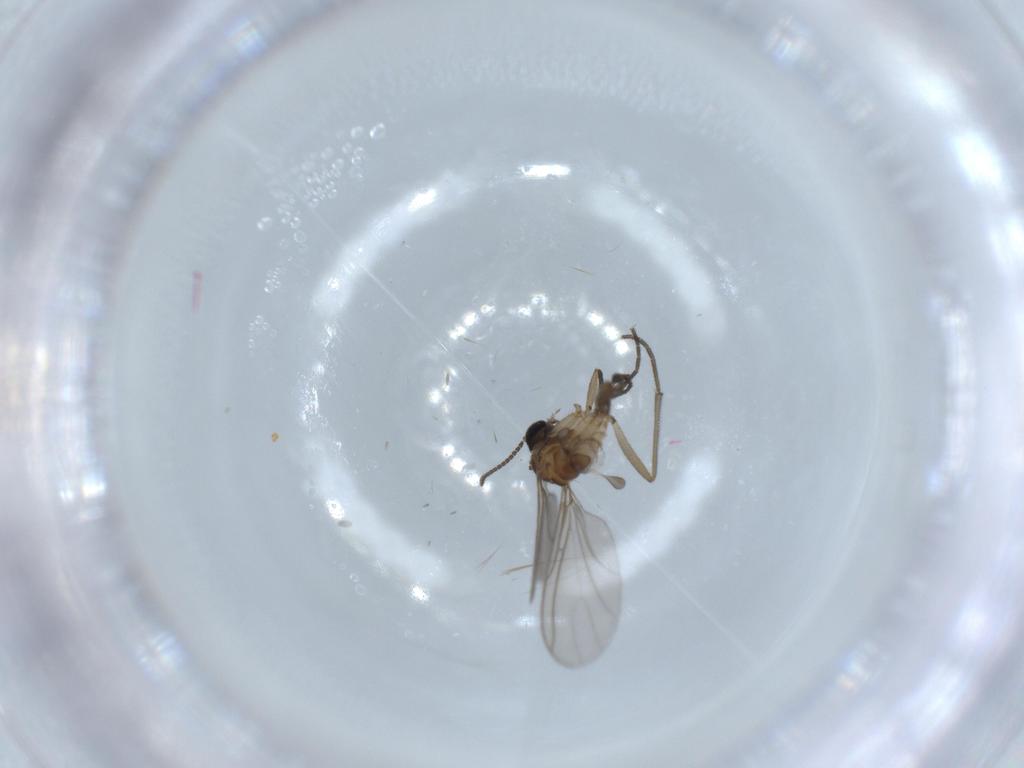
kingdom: Animalia
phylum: Arthropoda
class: Insecta
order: Diptera
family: Sciaridae
